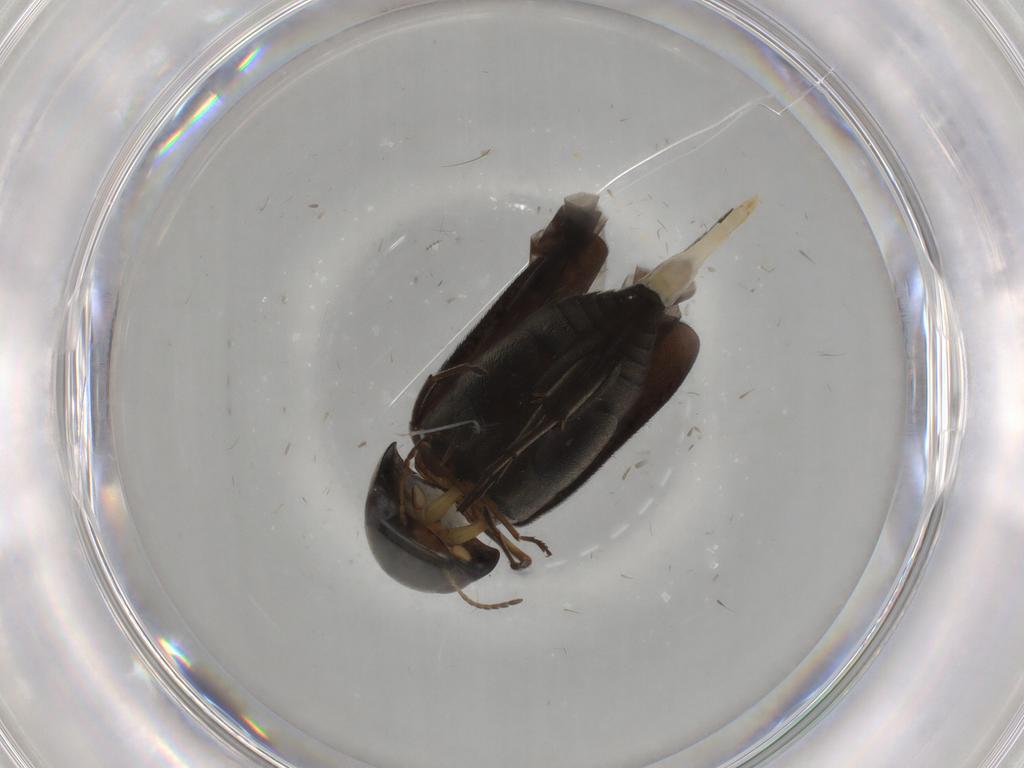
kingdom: Animalia
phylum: Arthropoda
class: Insecta
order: Coleoptera
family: Mordellidae
